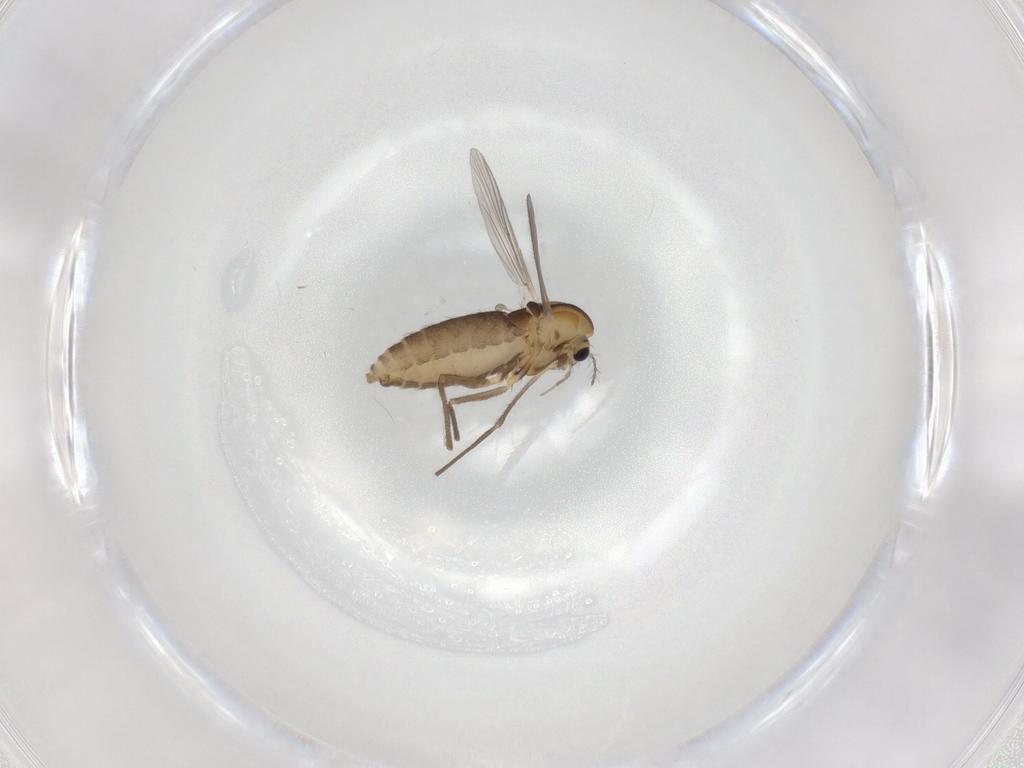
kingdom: Animalia
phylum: Arthropoda
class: Insecta
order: Diptera
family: Chironomidae
